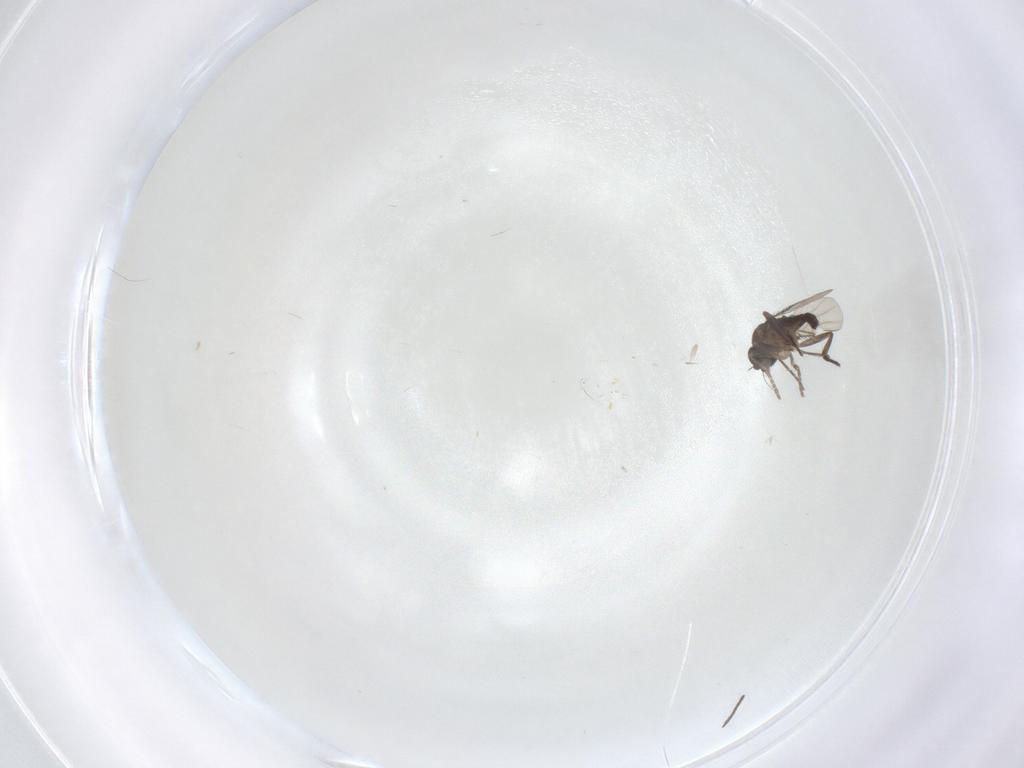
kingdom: Animalia
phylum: Arthropoda
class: Insecta
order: Diptera
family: Phoridae
